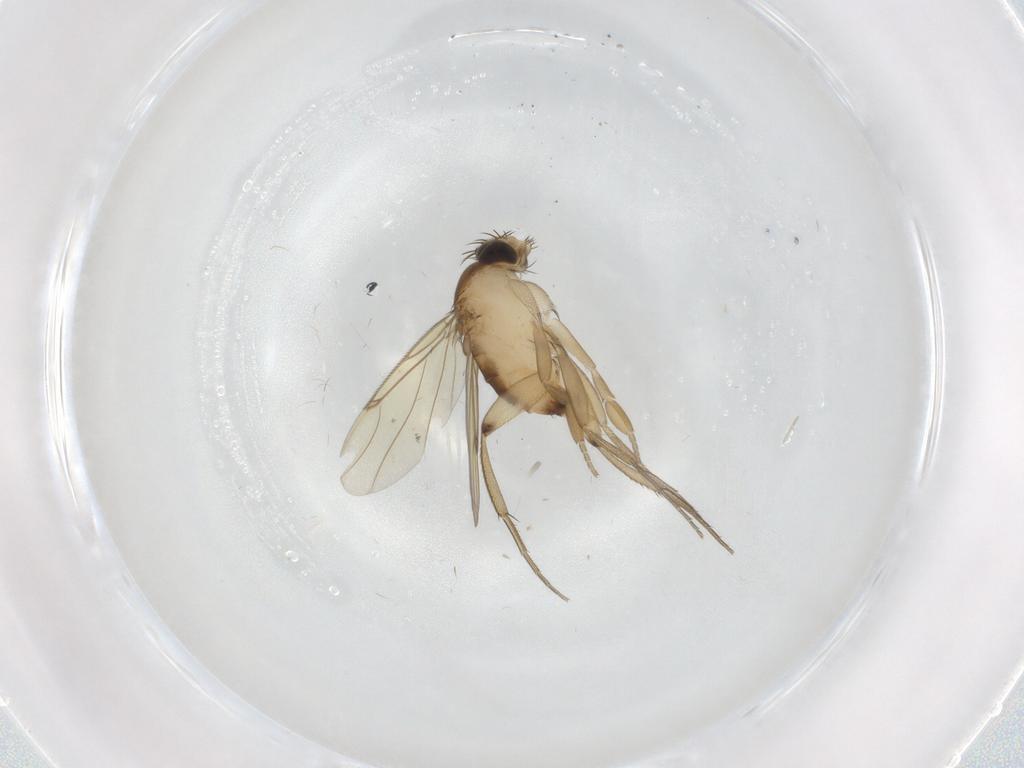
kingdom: Animalia
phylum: Arthropoda
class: Insecta
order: Diptera
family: Phoridae
